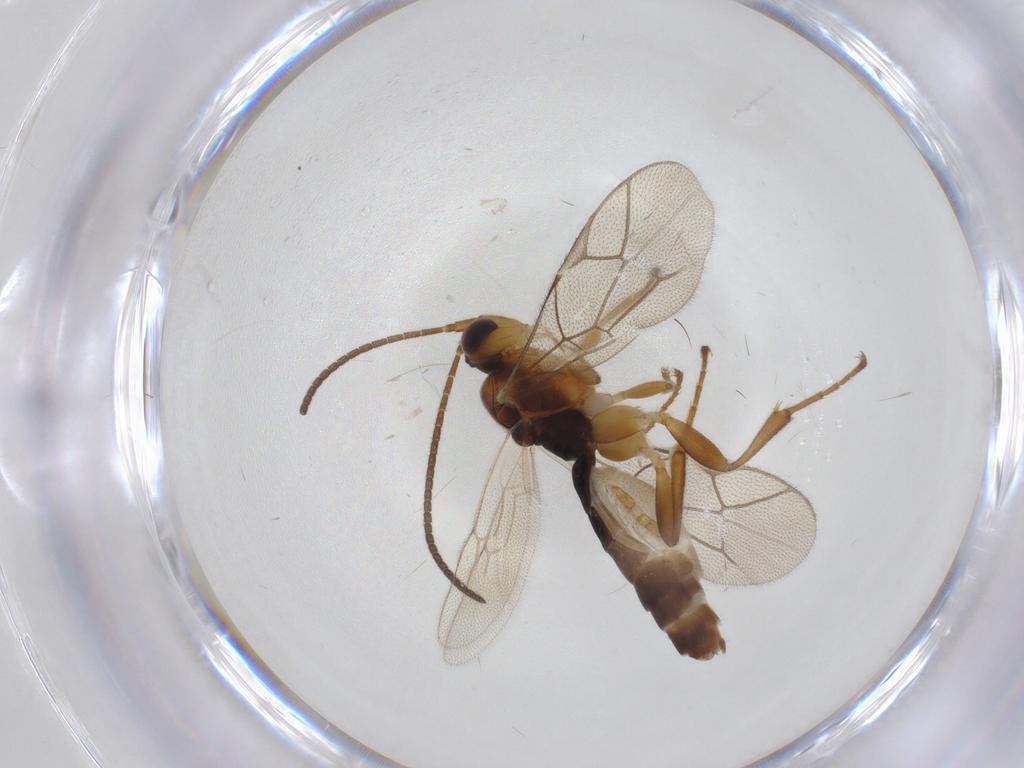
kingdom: Animalia
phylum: Arthropoda
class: Insecta
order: Hymenoptera
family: Ichneumonidae
